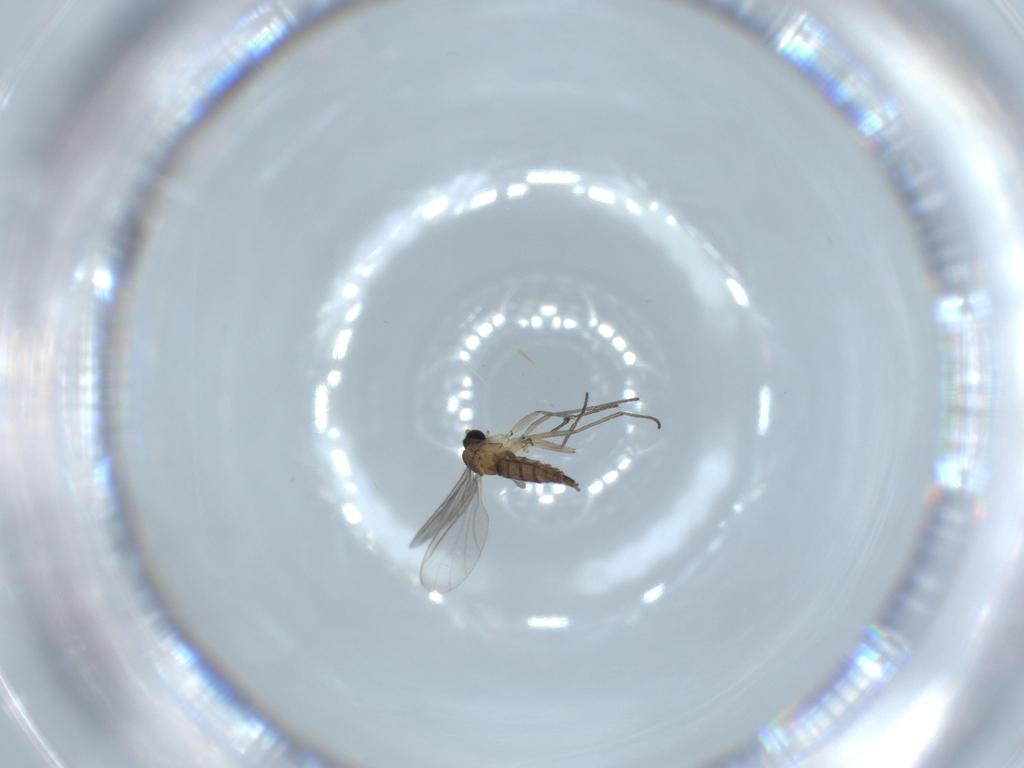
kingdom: Animalia
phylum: Arthropoda
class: Insecta
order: Diptera
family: Sciaridae
